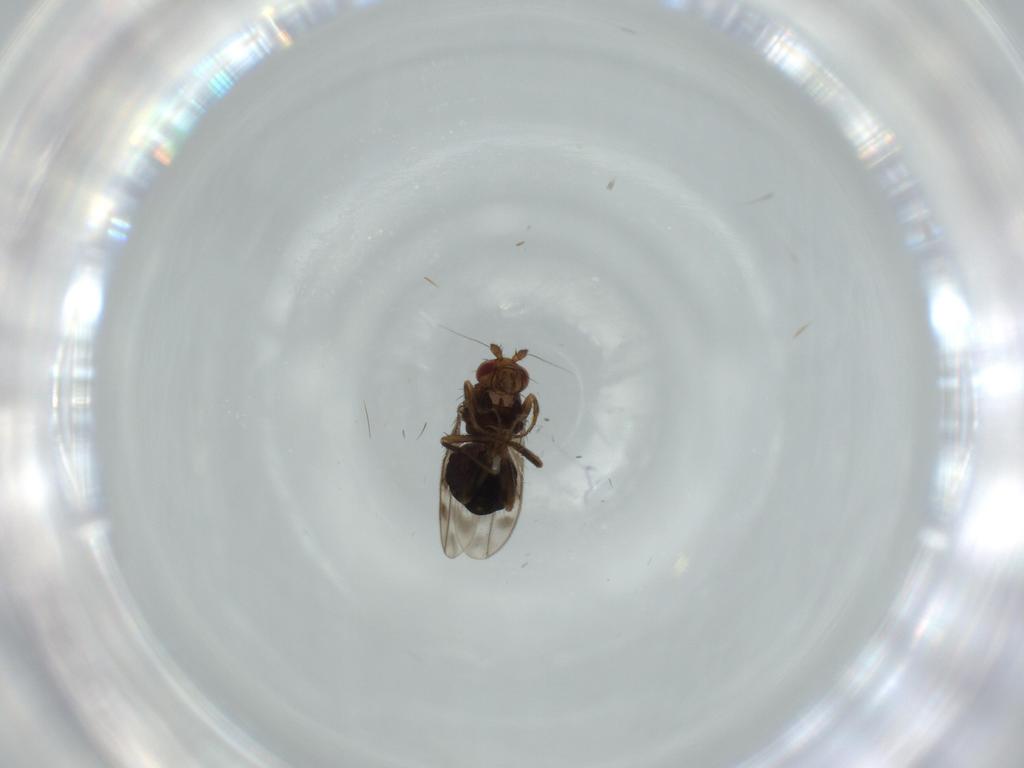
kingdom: Animalia
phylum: Arthropoda
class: Insecta
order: Diptera
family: Sphaeroceridae
